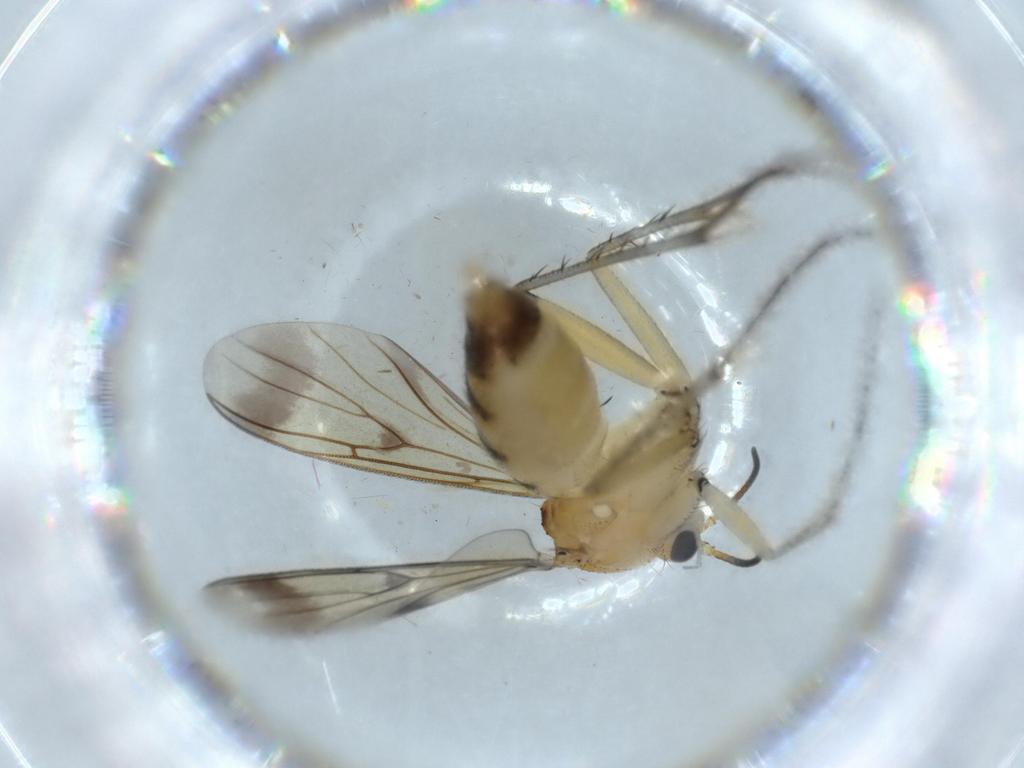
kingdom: Animalia
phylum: Arthropoda
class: Insecta
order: Diptera
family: Mycetophilidae
